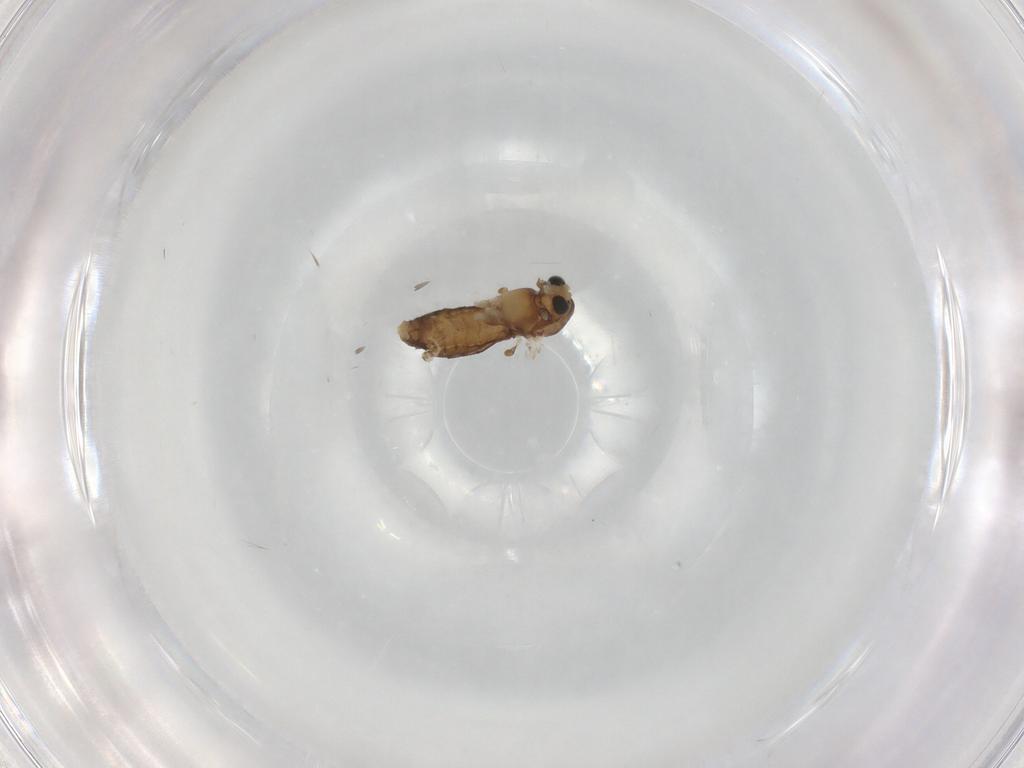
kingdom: Animalia
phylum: Arthropoda
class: Insecta
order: Diptera
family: Chironomidae
